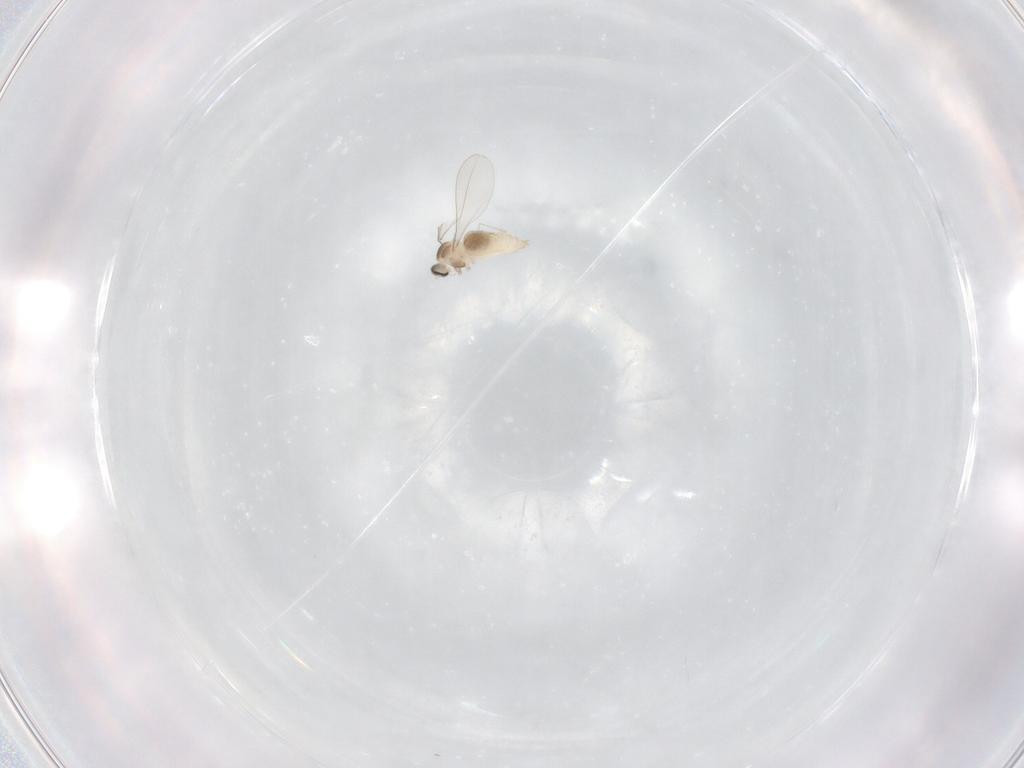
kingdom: Animalia
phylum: Arthropoda
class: Insecta
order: Diptera
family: Cecidomyiidae
